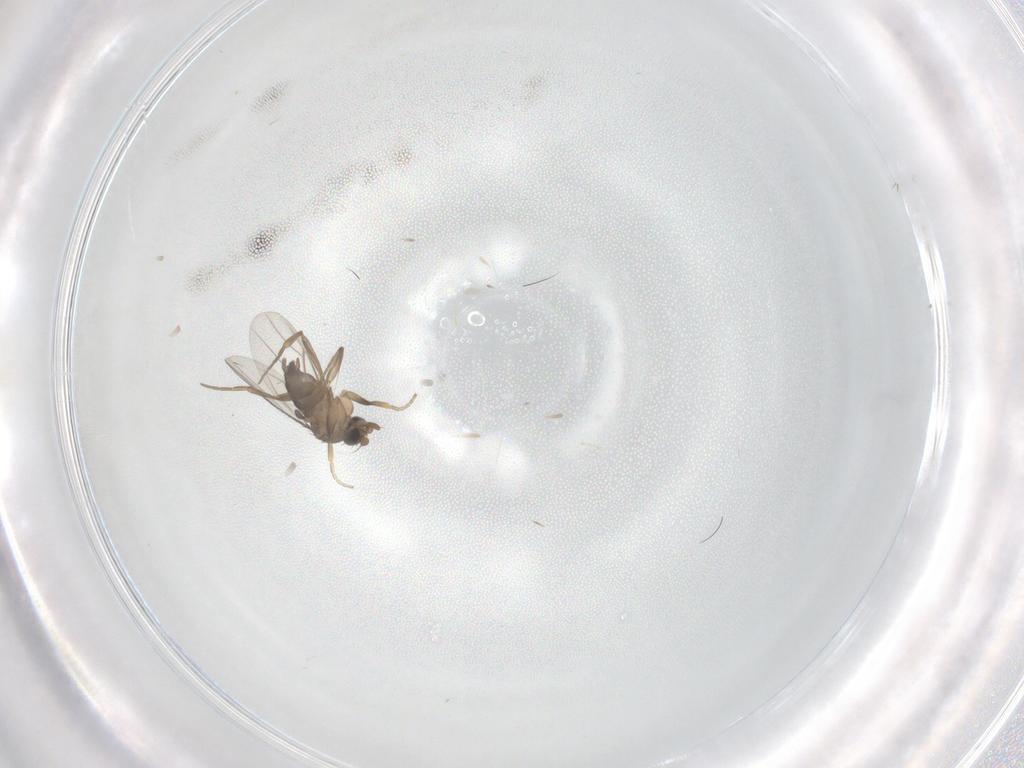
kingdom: Animalia
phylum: Arthropoda
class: Insecta
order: Diptera
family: Phoridae
